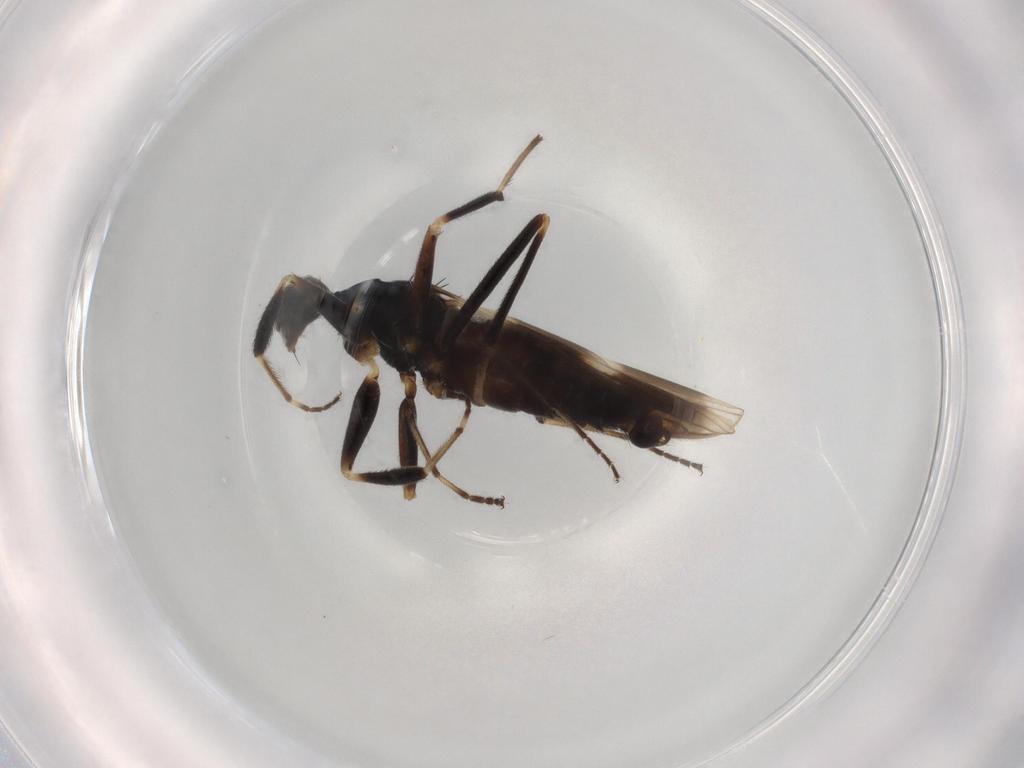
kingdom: Animalia
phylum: Arthropoda
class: Insecta
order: Diptera
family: Chironomidae
